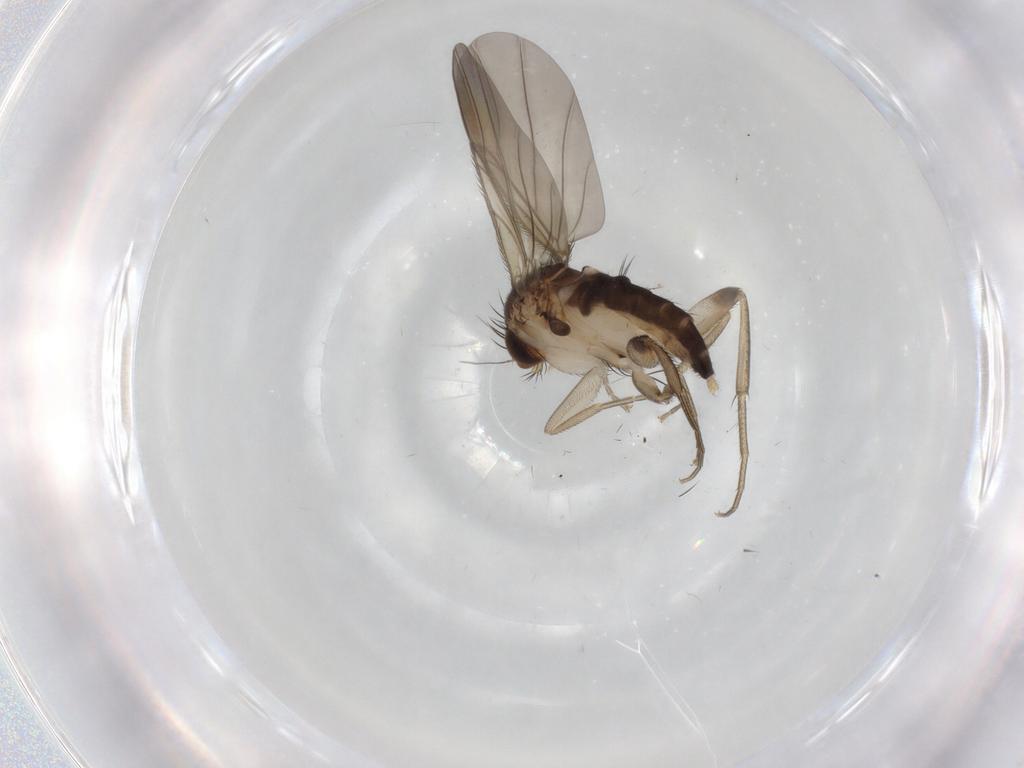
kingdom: Animalia
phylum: Arthropoda
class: Insecta
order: Diptera
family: Phoridae
